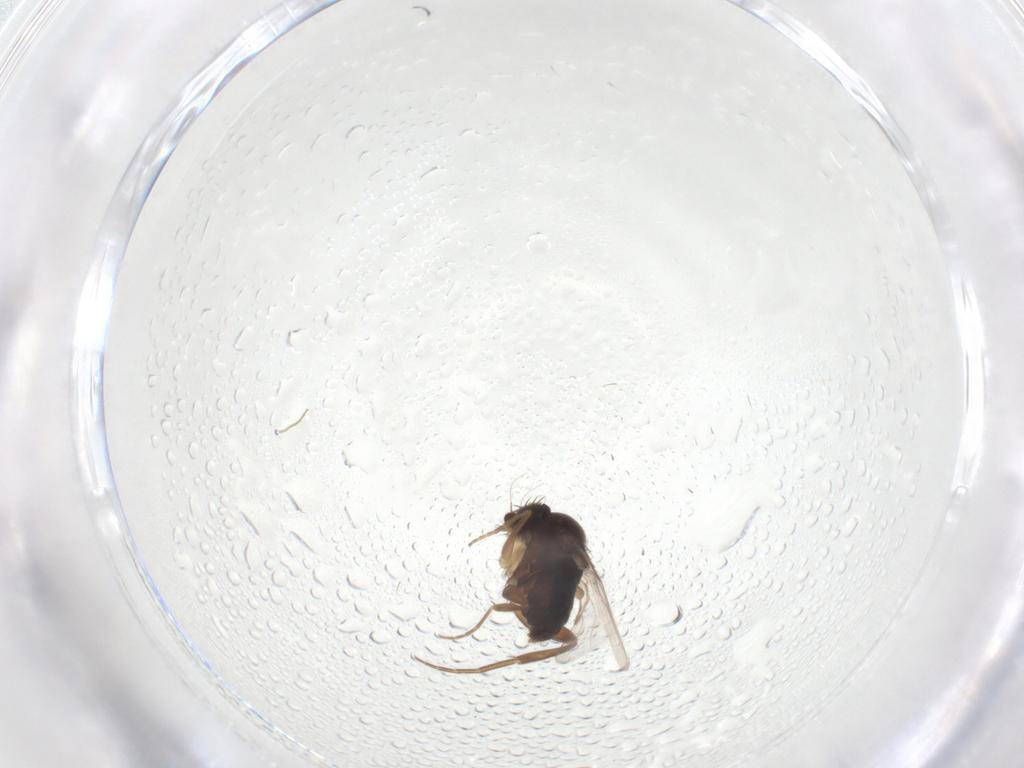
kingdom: Animalia
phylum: Arthropoda
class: Insecta
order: Diptera
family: Phoridae
